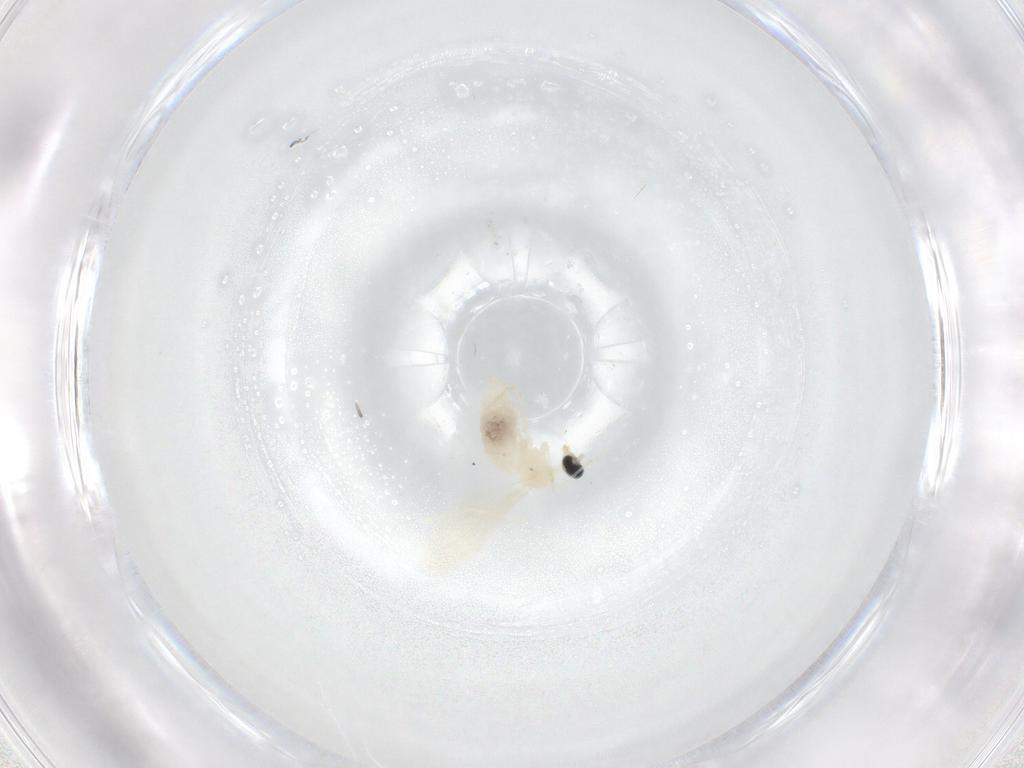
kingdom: Animalia
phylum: Arthropoda
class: Insecta
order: Diptera
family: Cecidomyiidae
